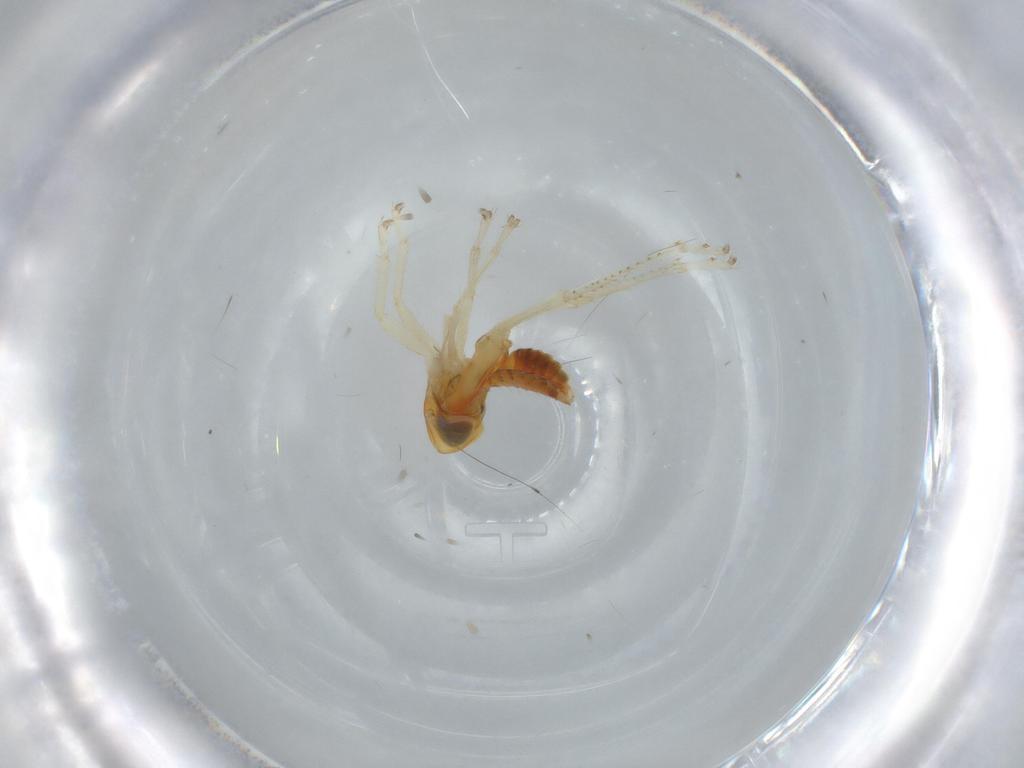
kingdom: Animalia
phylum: Arthropoda
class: Insecta
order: Hemiptera
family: Cicadellidae
